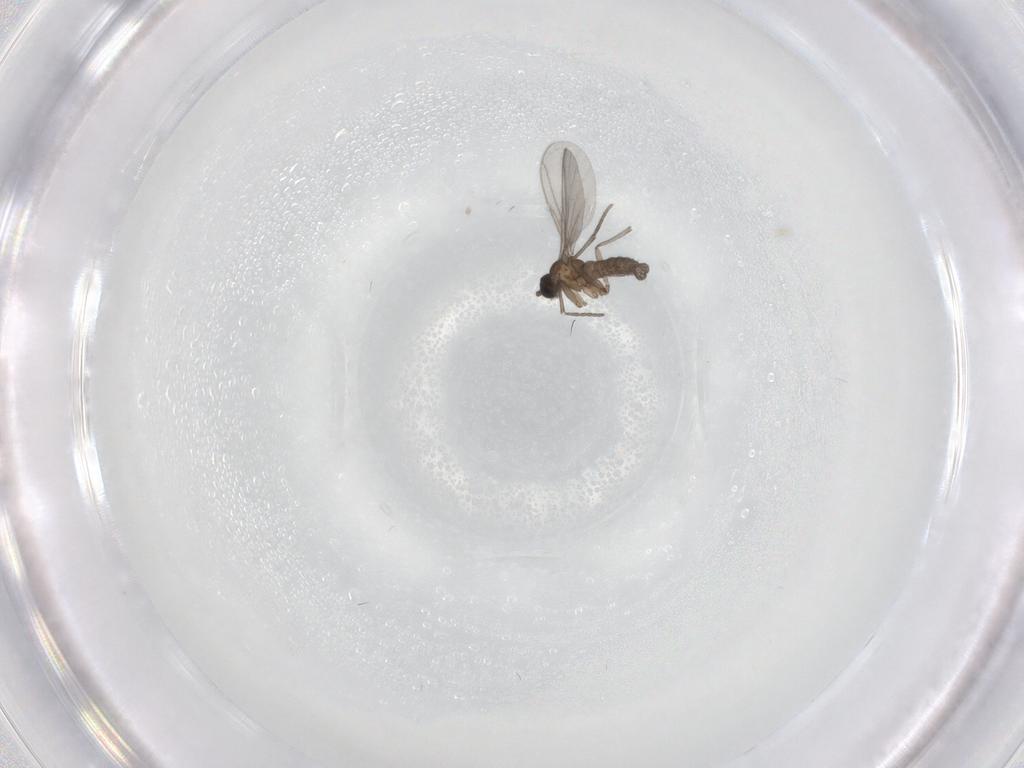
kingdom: Animalia
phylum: Arthropoda
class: Insecta
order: Diptera
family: Sciaridae
